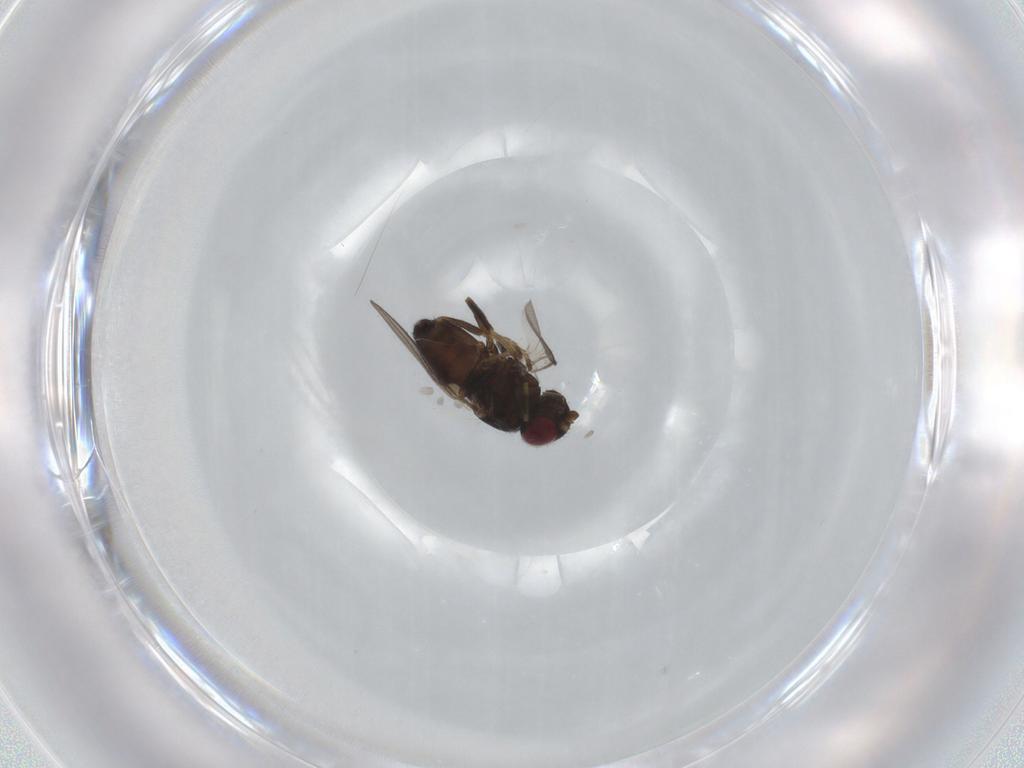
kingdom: Animalia
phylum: Arthropoda
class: Insecta
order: Diptera
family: Chloropidae
